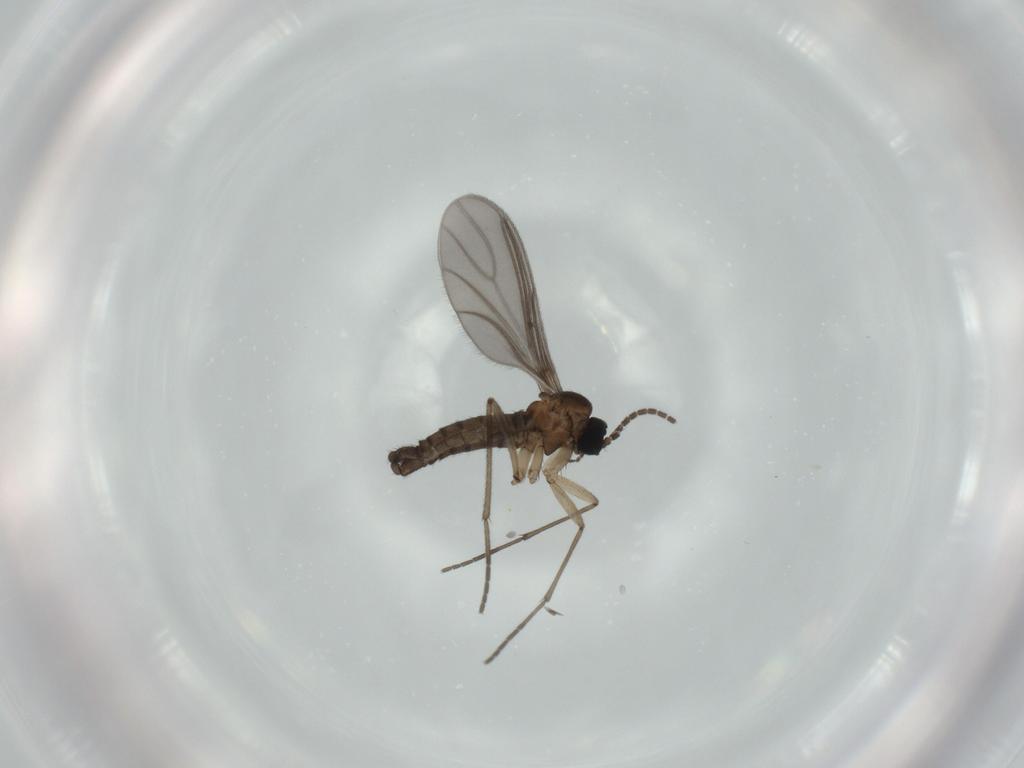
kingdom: Animalia
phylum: Arthropoda
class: Insecta
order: Diptera
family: Sciaridae
